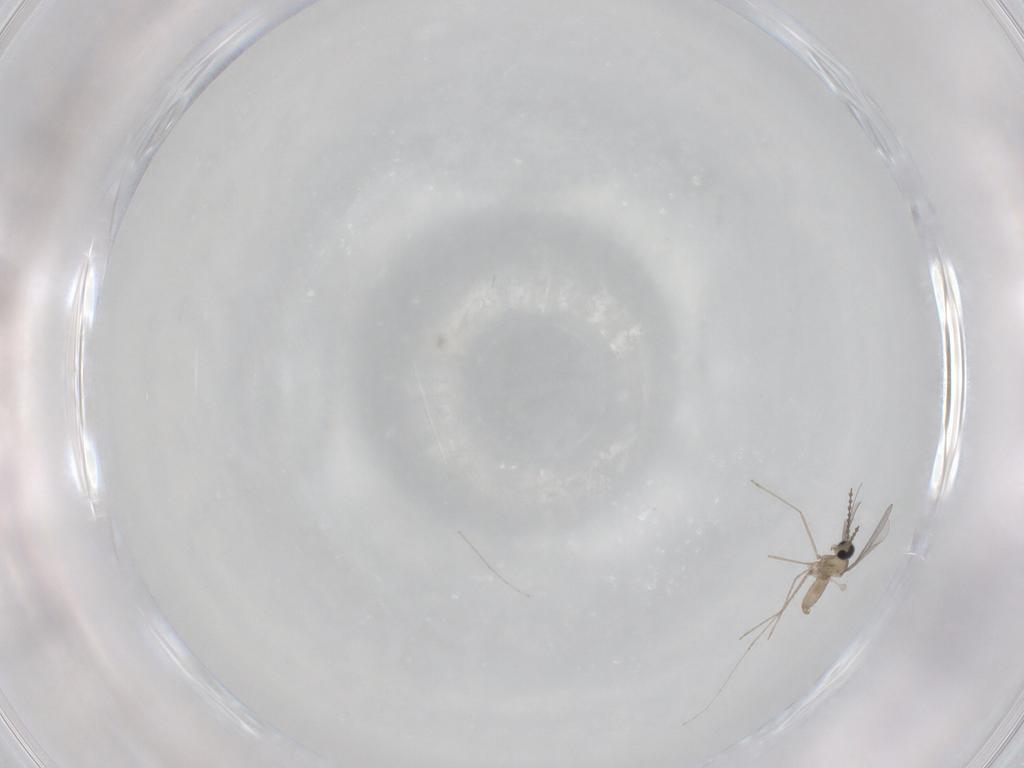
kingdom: Animalia
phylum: Arthropoda
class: Insecta
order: Diptera
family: Cecidomyiidae
